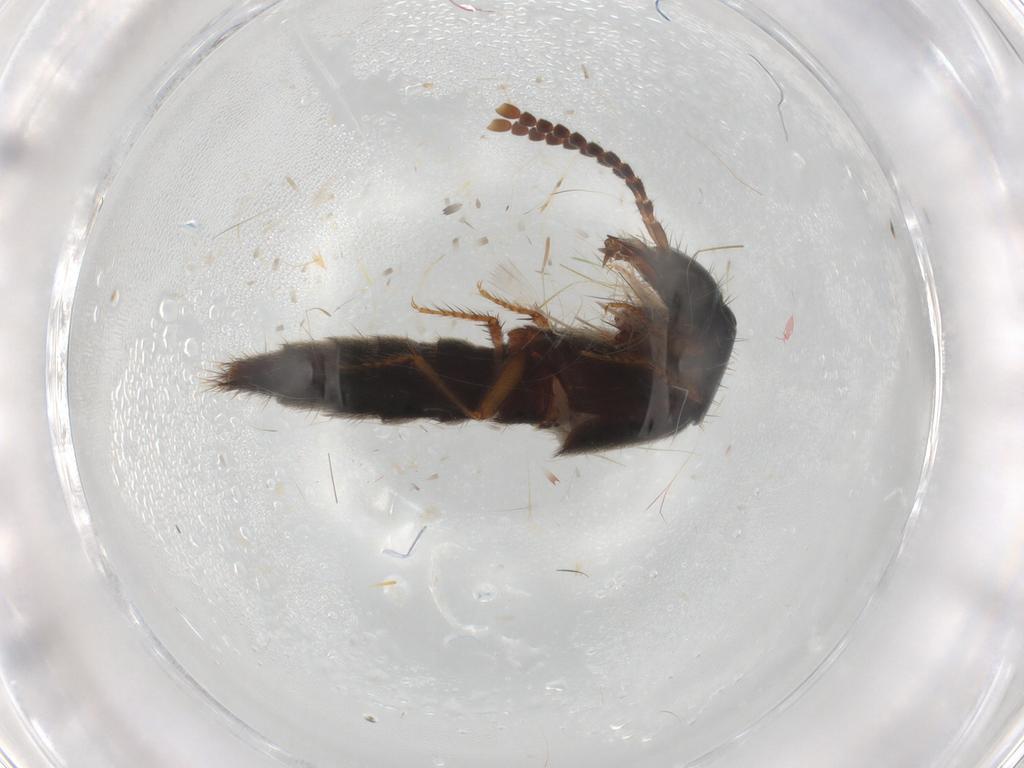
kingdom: Animalia
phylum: Arthropoda
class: Insecta
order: Coleoptera
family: Staphylinidae
